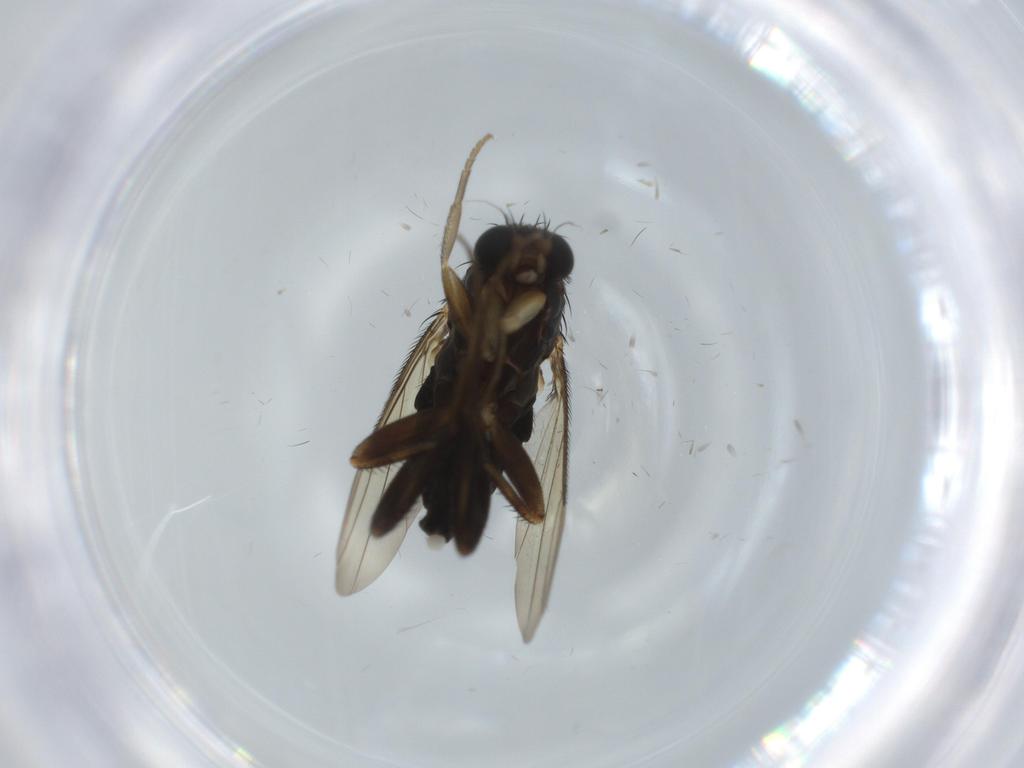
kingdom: Animalia
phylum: Arthropoda
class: Insecta
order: Diptera
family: Phoridae
